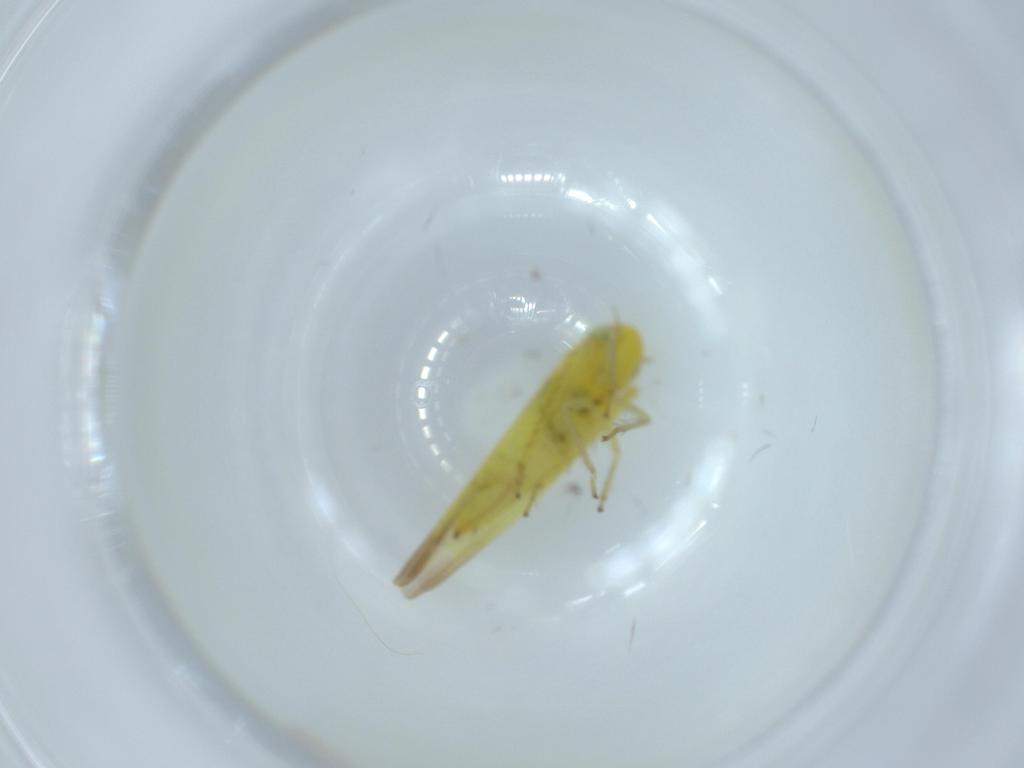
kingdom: Animalia
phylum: Arthropoda
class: Insecta
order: Hemiptera
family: Cicadellidae
